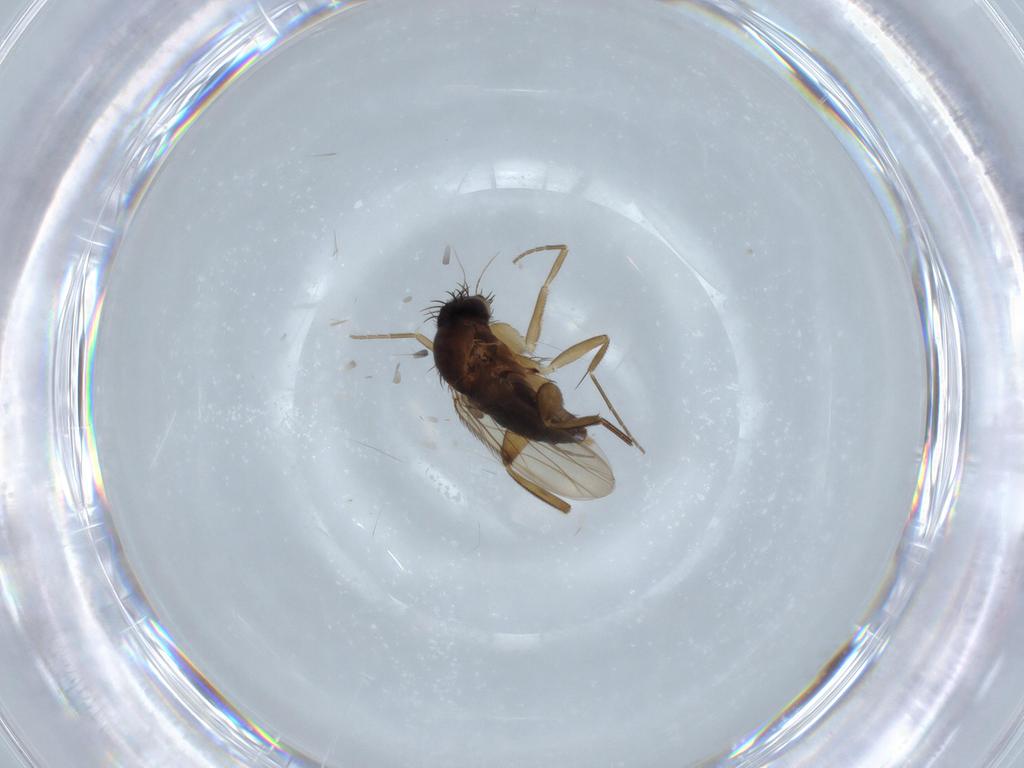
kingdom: Animalia
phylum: Arthropoda
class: Insecta
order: Diptera
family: Phoridae
